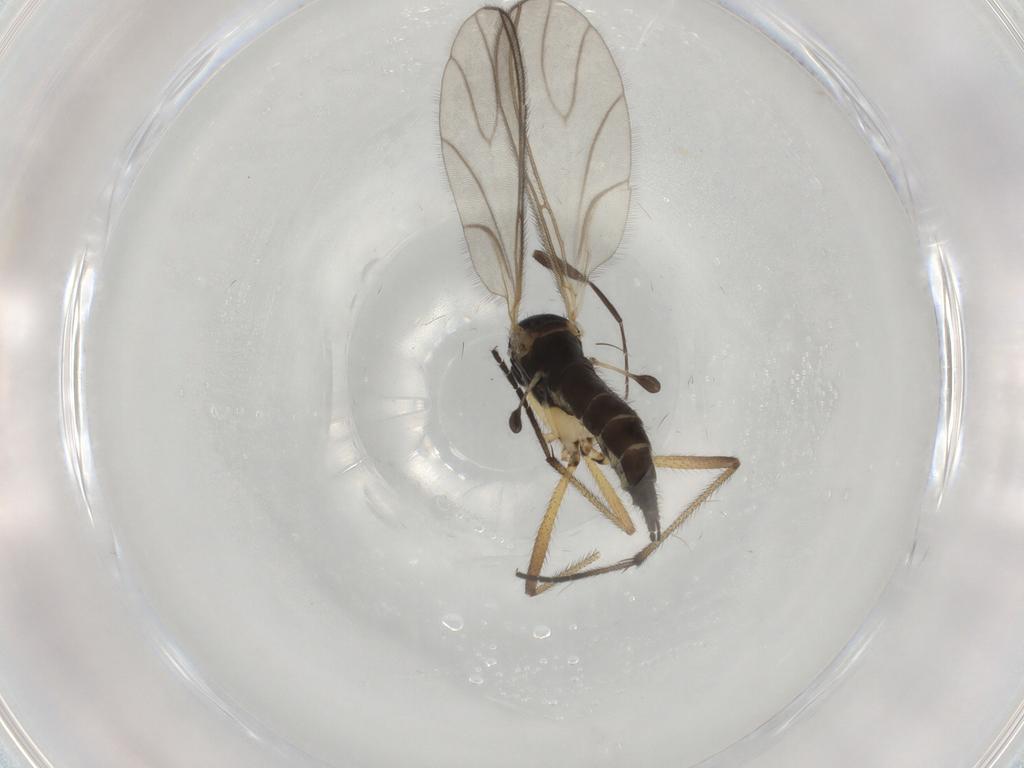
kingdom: Animalia
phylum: Arthropoda
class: Insecta
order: Diptera
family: Sciaridae
